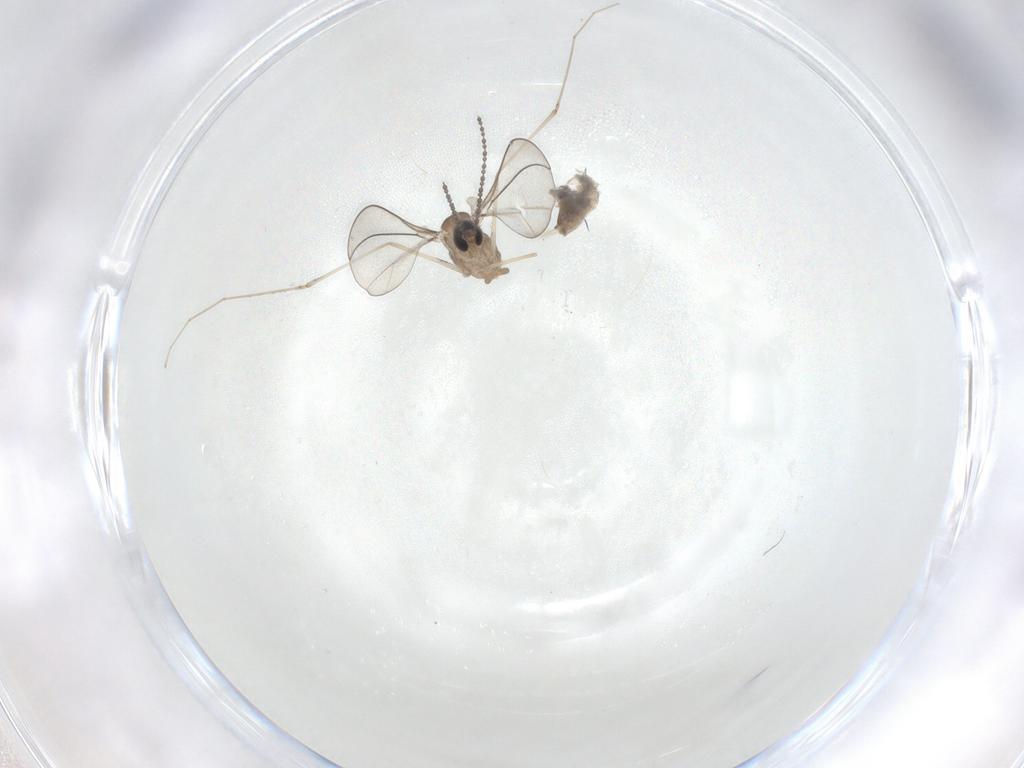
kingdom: Animalia
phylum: Arthropoda
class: Insecta
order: Diptera
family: Cecidomyiidae
